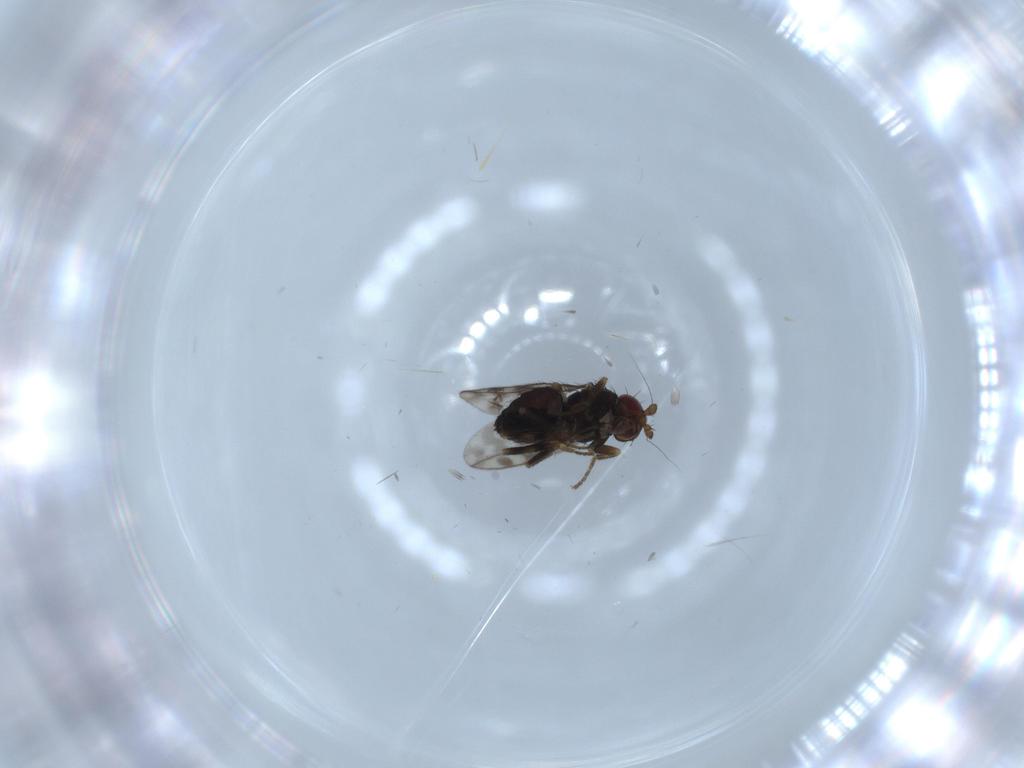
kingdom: Animalia
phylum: Arthropoda
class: Insecta
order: Diptera
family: Sphaeroceridae
